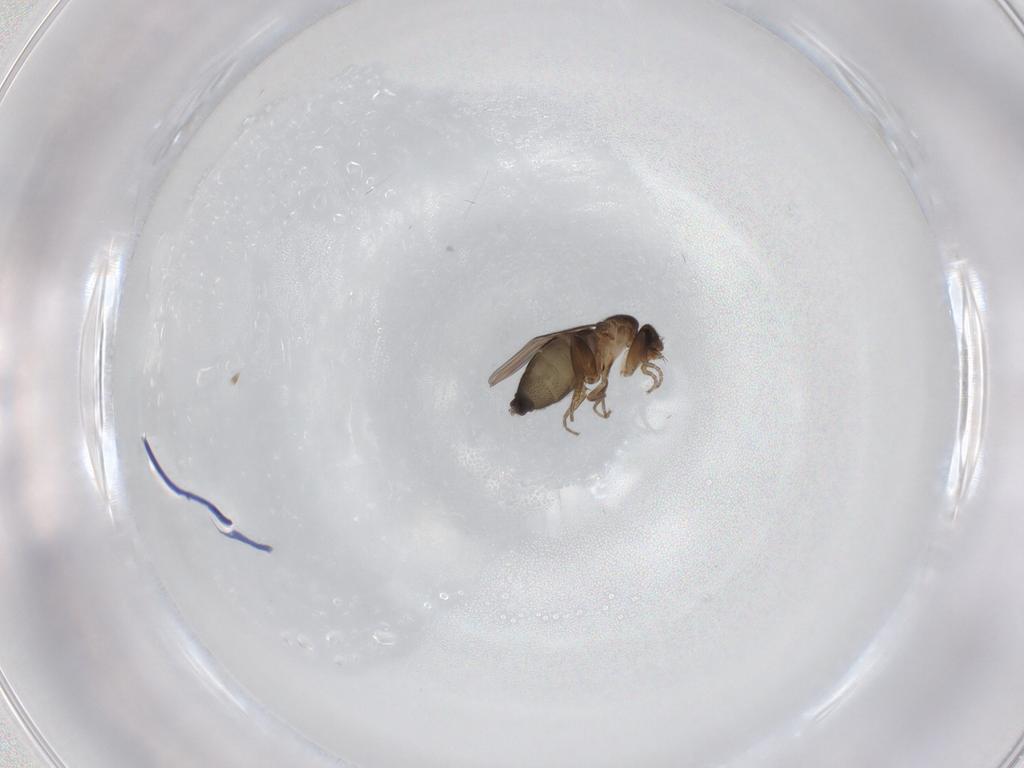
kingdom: Animalia
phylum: Arthropoda
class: Insecta
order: Diptera
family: Phoridae
